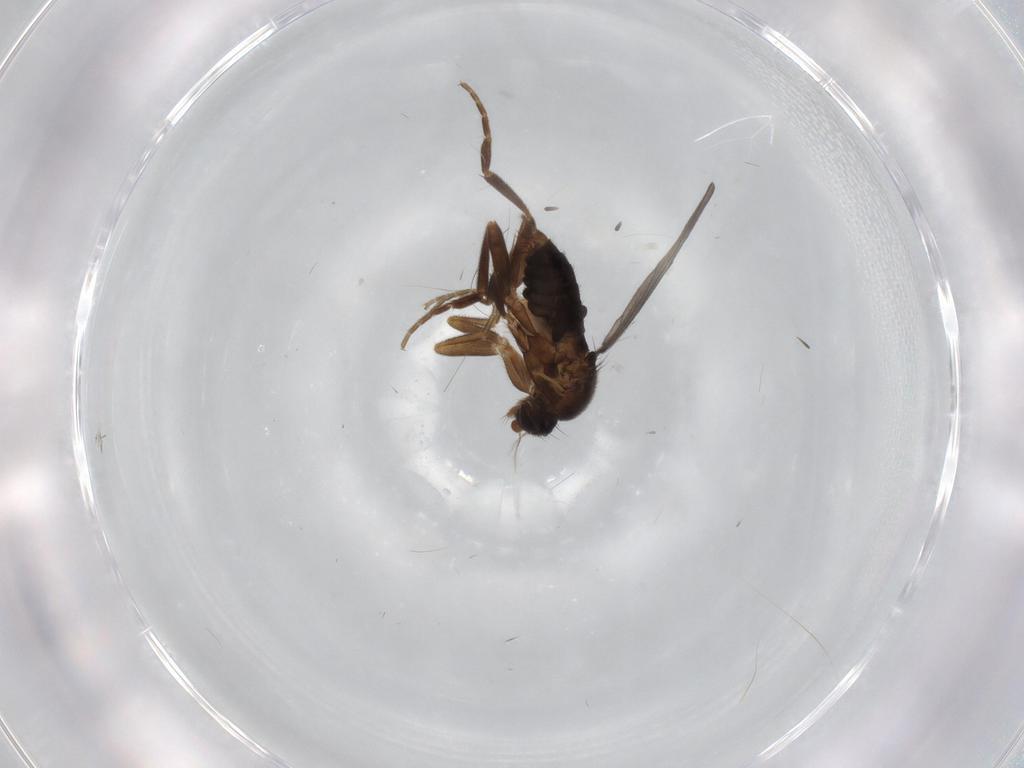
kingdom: Animalia
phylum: Arthropoda
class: Insecta
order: Diptera
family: Phoridae
